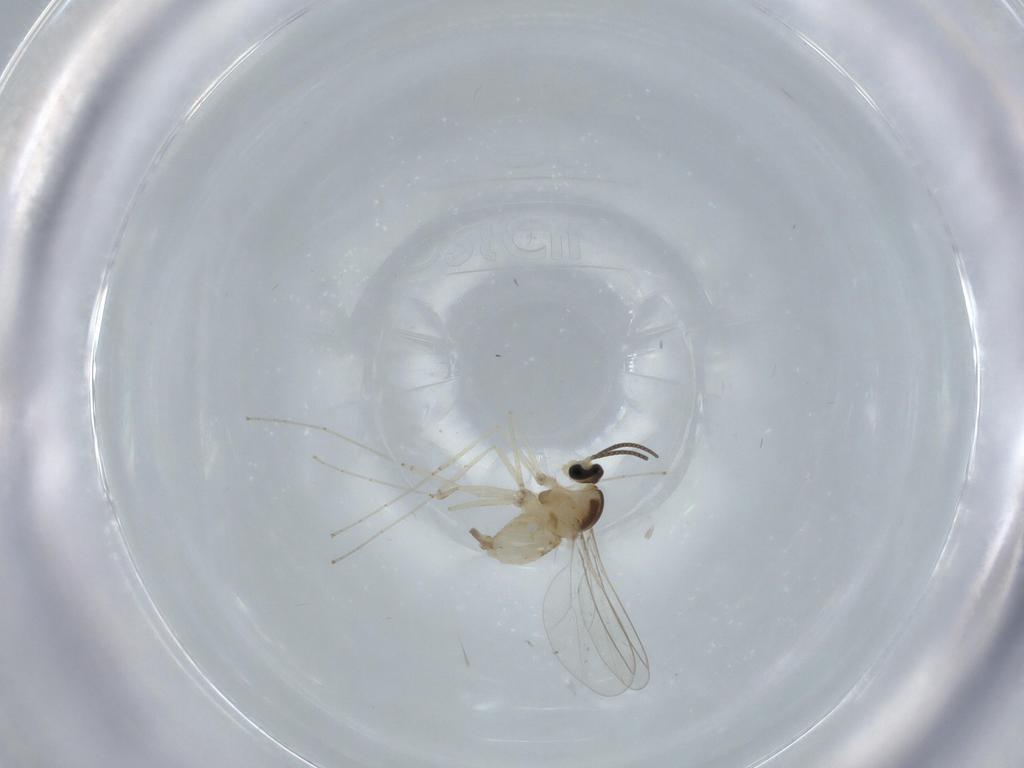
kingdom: Animalia
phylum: Arthropoda
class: Insecta
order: Diptera
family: Cecidomyiidae
